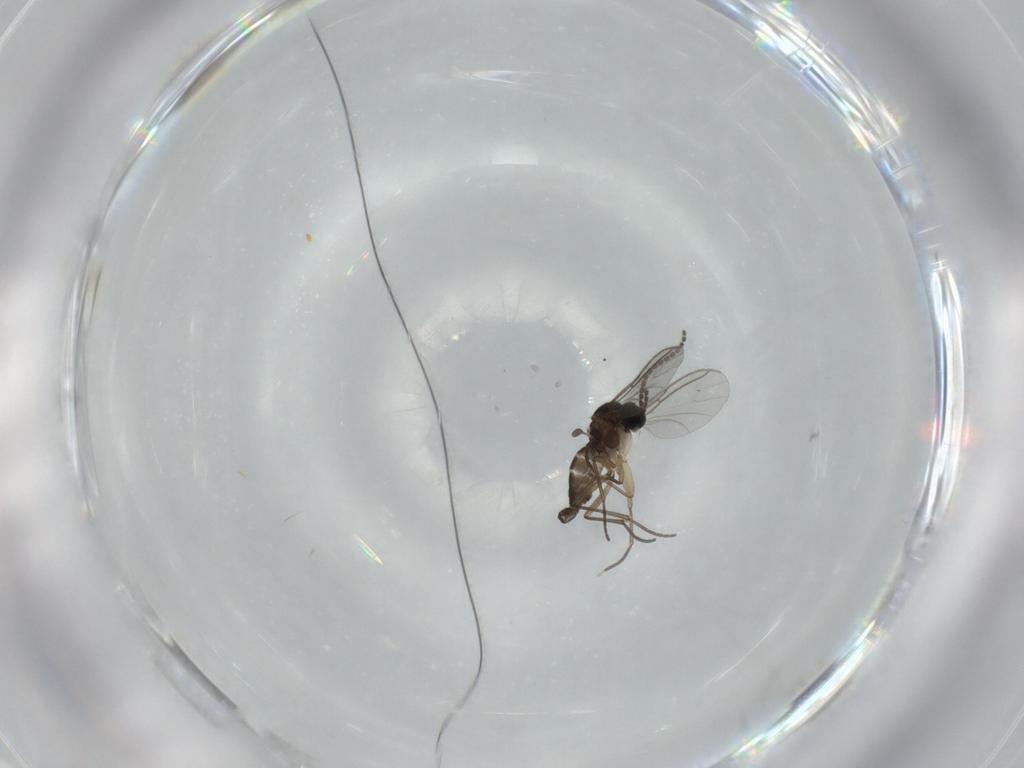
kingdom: Animalia
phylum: Arthropoda
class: Insecta
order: Diptera
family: Sciaridae
